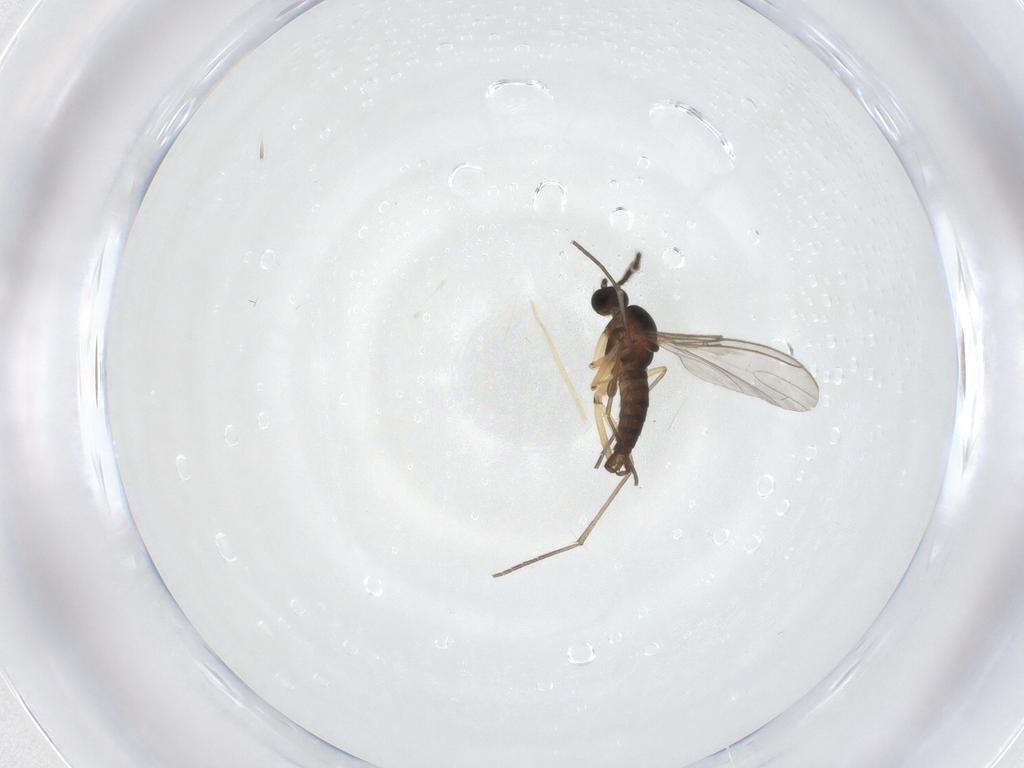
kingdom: Animalia
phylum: Arthropoda
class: Insecta
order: Diptera
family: Sciaridae
